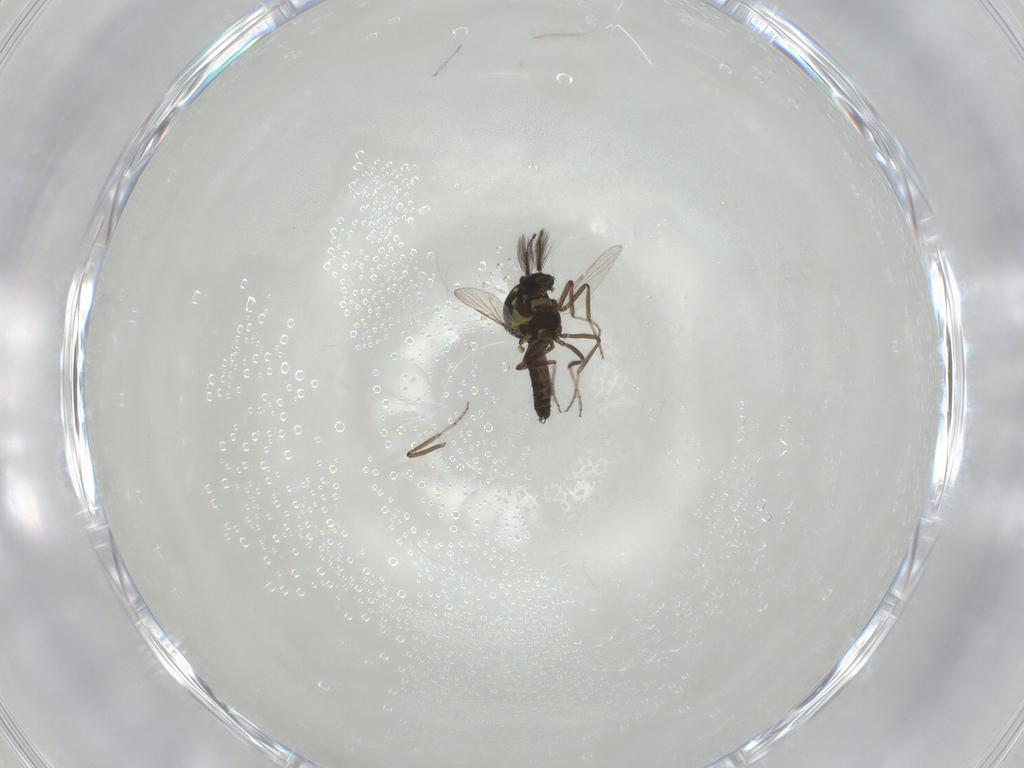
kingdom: Animalia
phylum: Arthropoda
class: Insecta
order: Diptera
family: Ceratopogonidae
